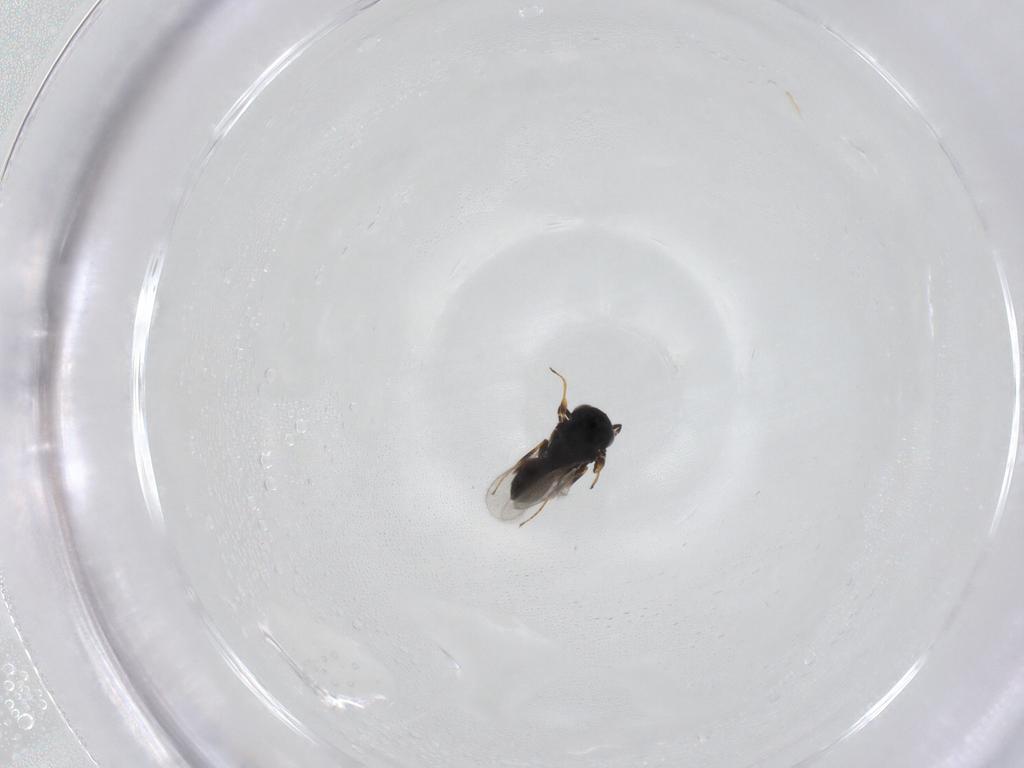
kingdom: Animalia
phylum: Arthropoda
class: Insecta
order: Hymenoptera
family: Scelionidae
